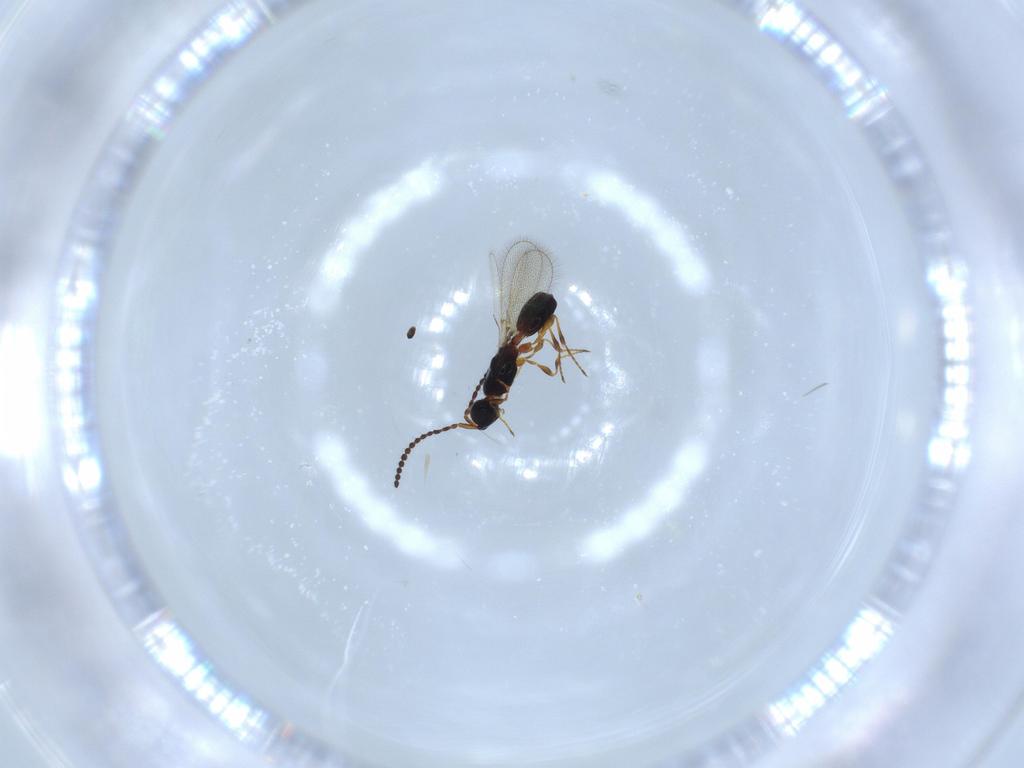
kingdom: Animalia
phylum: Arthropoda
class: Insecta
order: Hymenoptera
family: Diapriidae
